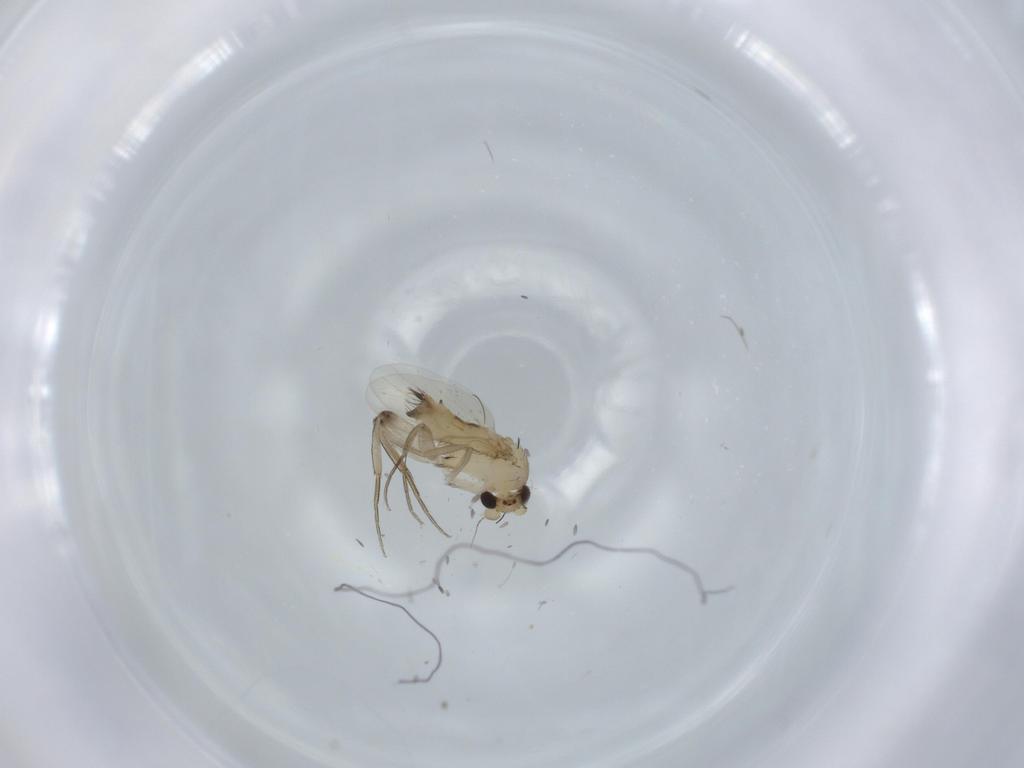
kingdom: Animalia
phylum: Arthropoda
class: Insecta
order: Diptera
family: Phoridae
